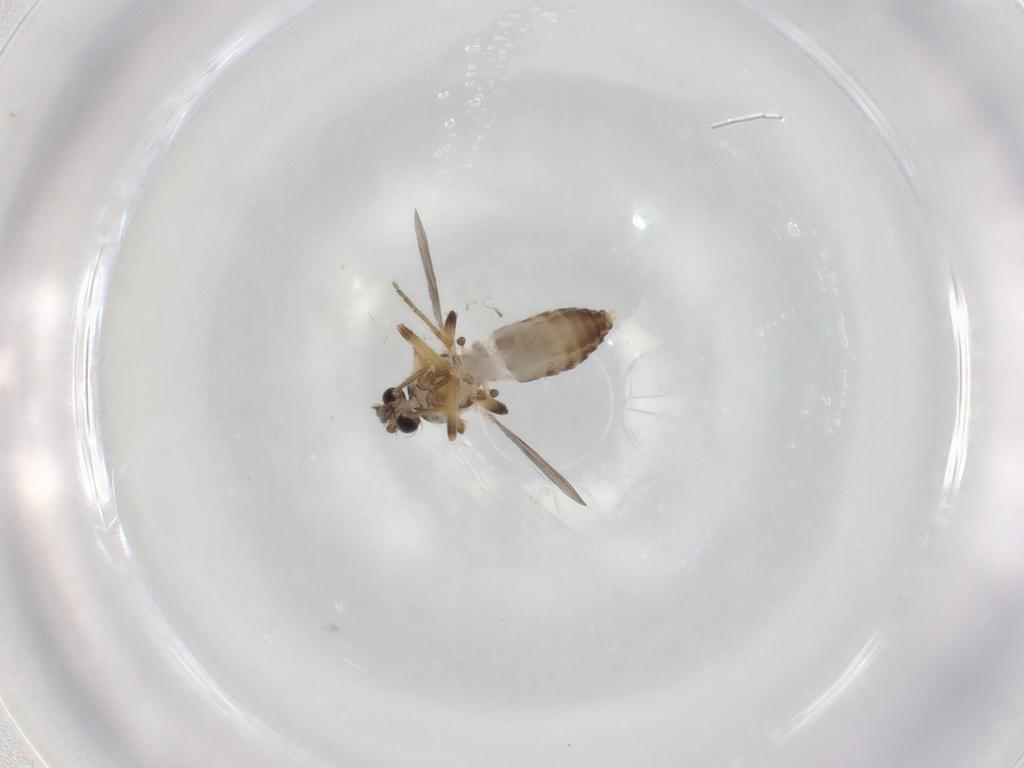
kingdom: Animalia
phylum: Arthropoda
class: Insecta
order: Diptera
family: Ceratopogonidae
